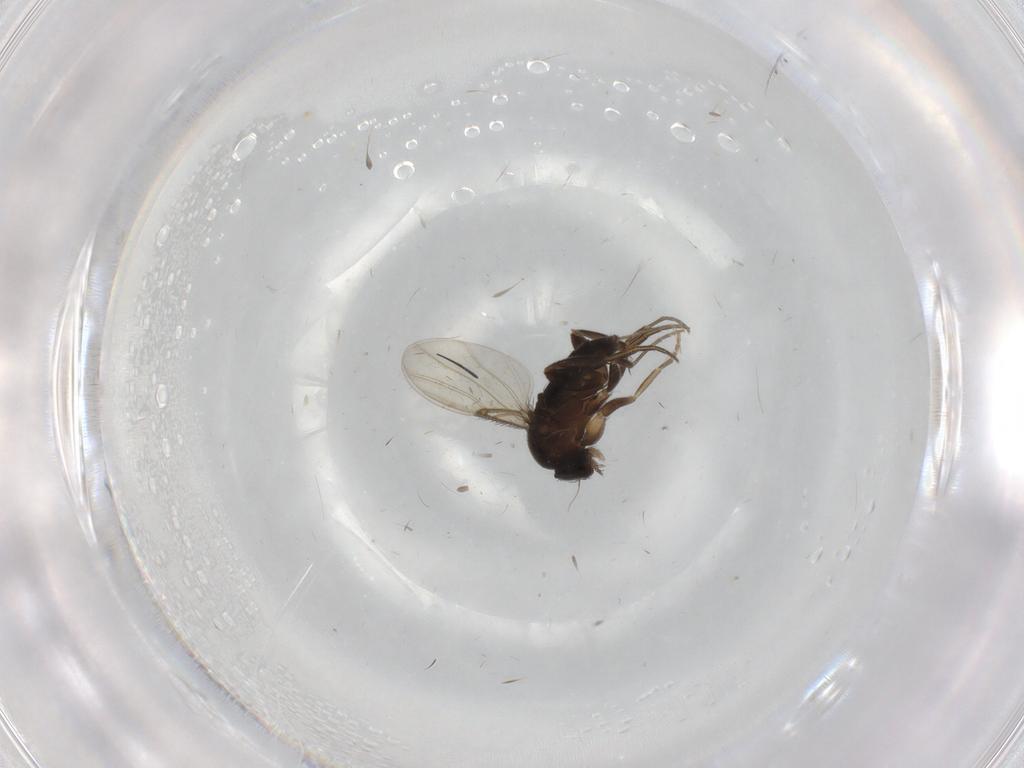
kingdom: Animalia
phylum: Arthropoda
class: Insecta
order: Diptera
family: Phoridae
